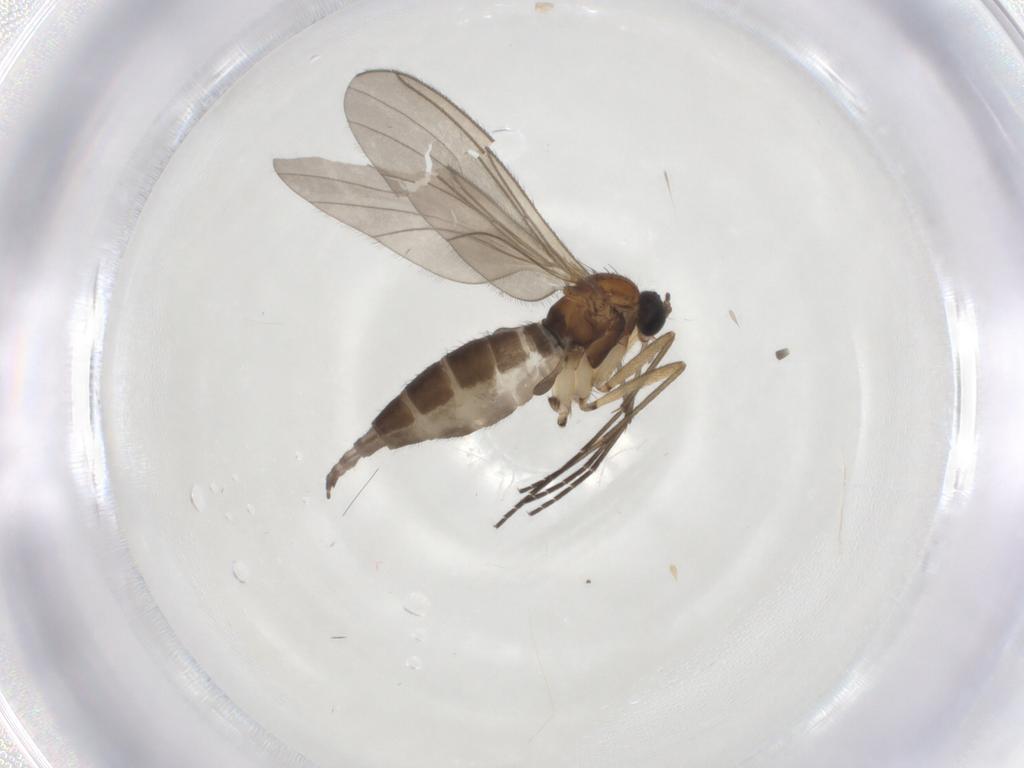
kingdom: Animalia
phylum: Arthropoda
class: Insecta
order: Diptera
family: Sciaridae
